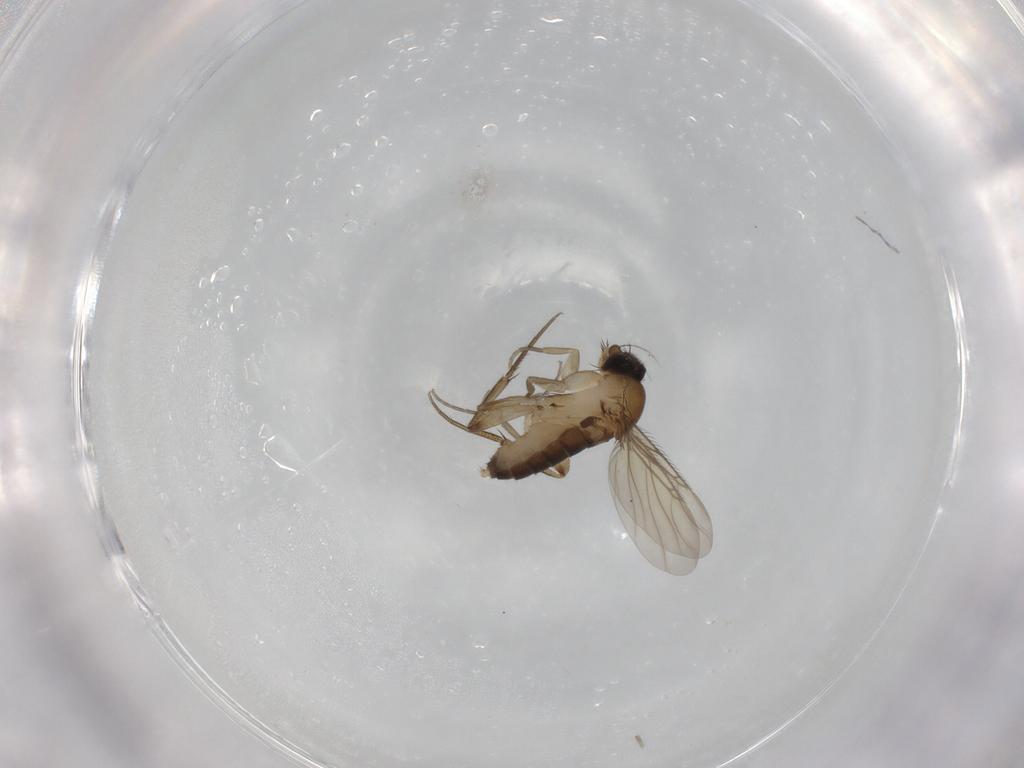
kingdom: Animalia
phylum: Arthropoda
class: Insecta
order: Diptera
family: Phoridae
